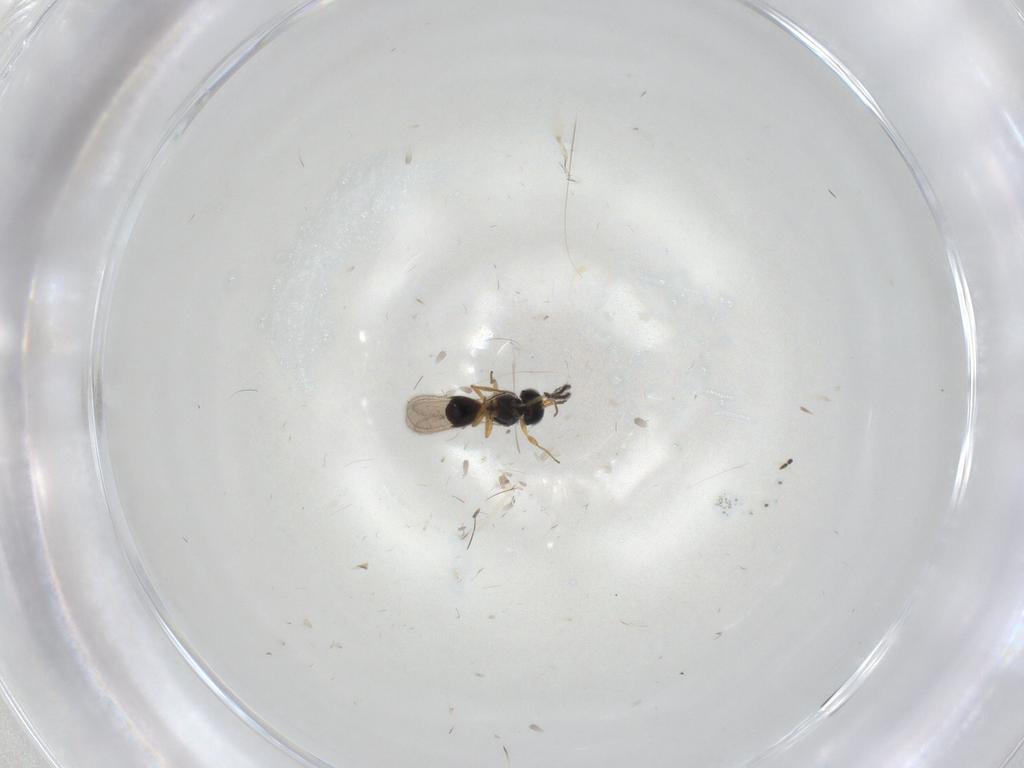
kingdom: Animalia
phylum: Arthropoda
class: Insecta
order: Hymenoptera
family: Scelionidae
